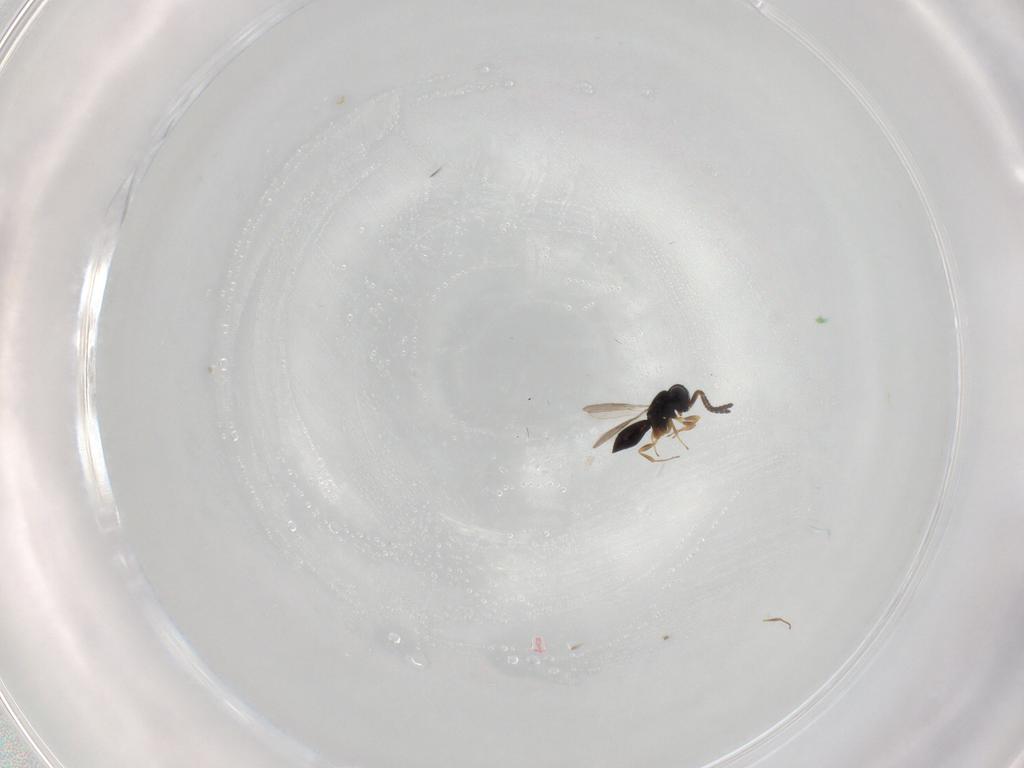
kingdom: Animalia
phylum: Arthropoda
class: Insecta
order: Hymenoptera
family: Scelionidae
